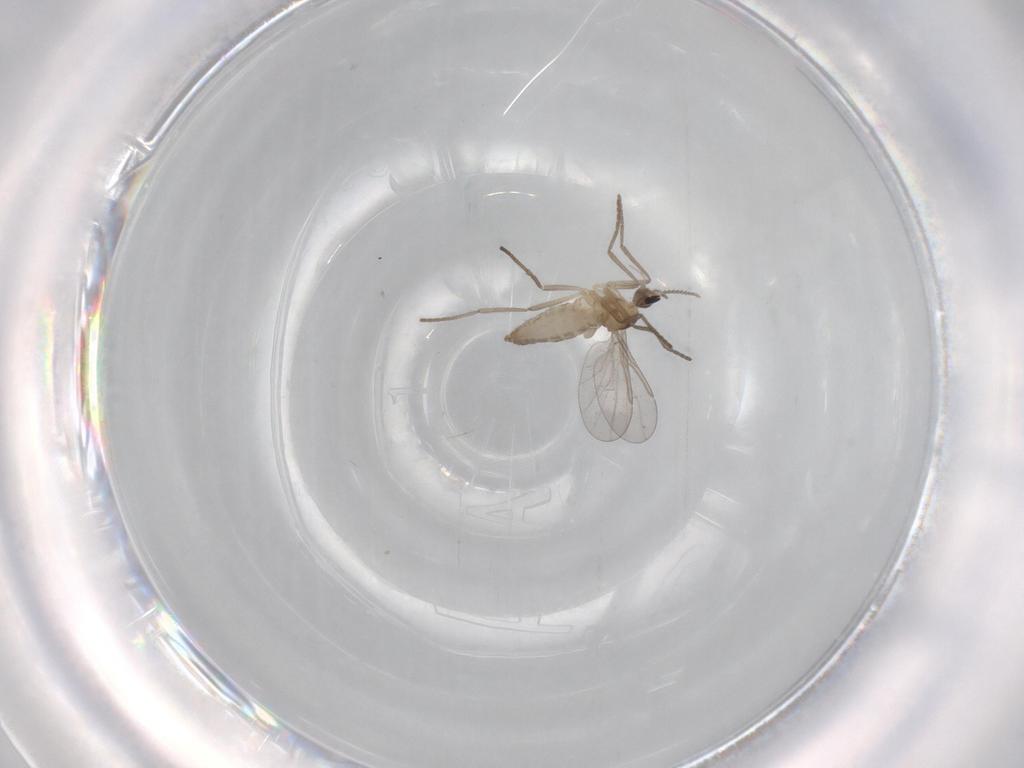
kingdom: Animalia
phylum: Arthropoda
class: Insecta
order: Diptera
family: Cecidomyiidae
